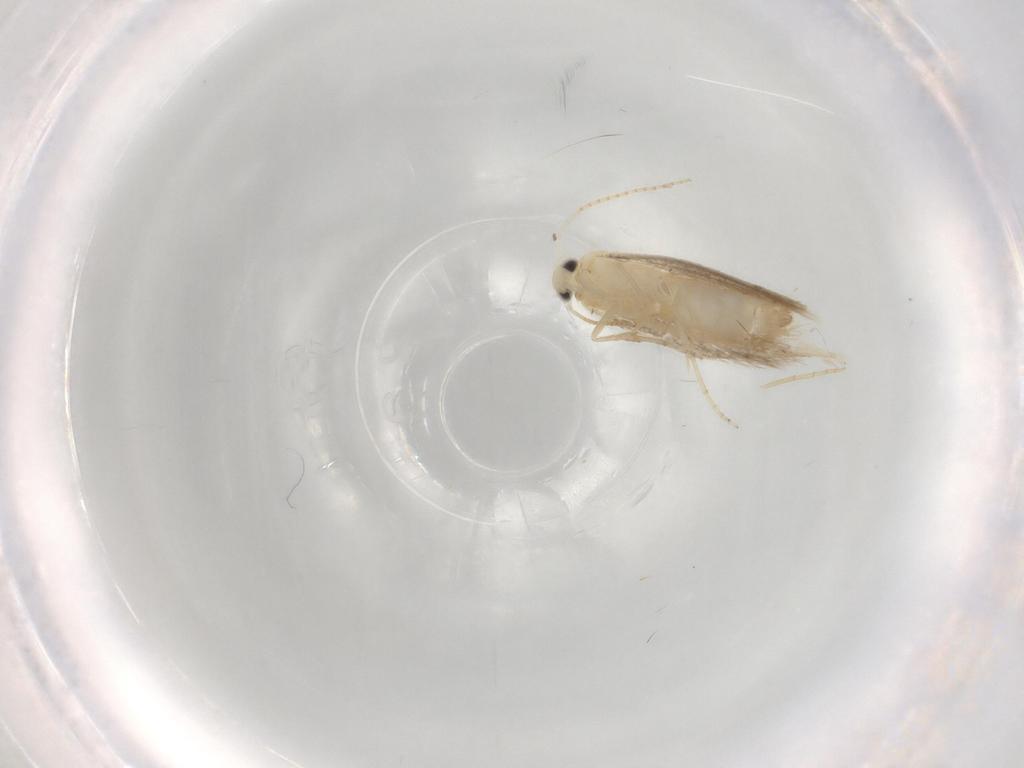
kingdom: Animalia
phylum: Arthropoda
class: Insecta
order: Lepidoptera
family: Bucculatricidae
